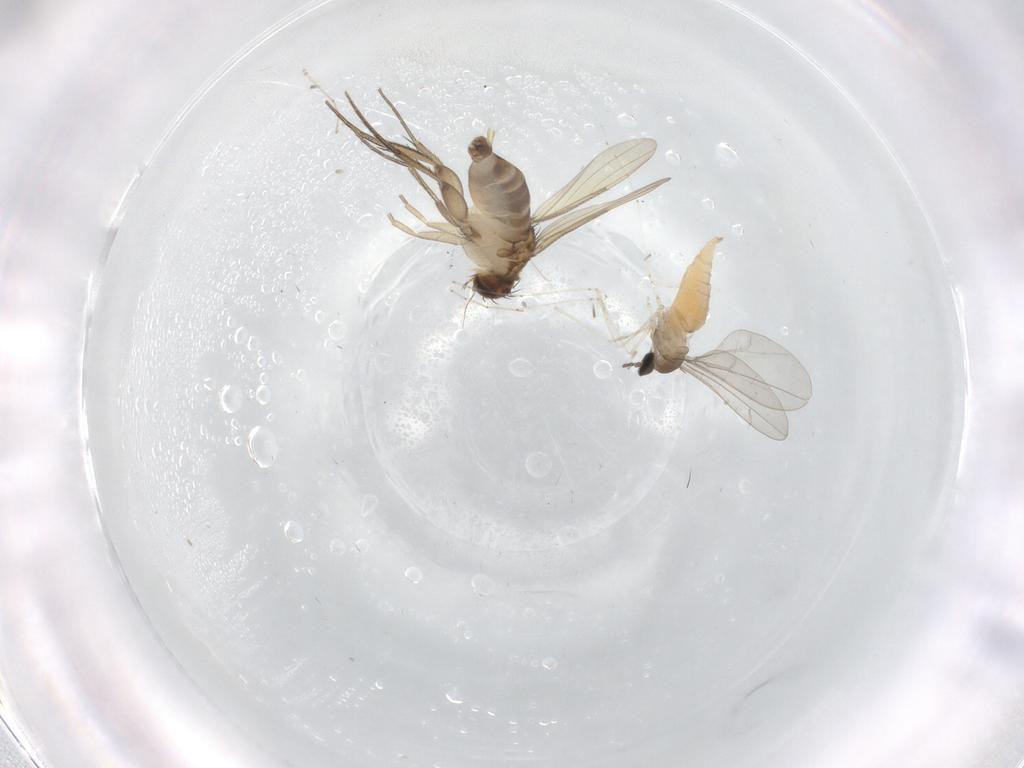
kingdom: Animalia
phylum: Arthropoda
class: Insecta
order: Diptera
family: Phoridae
